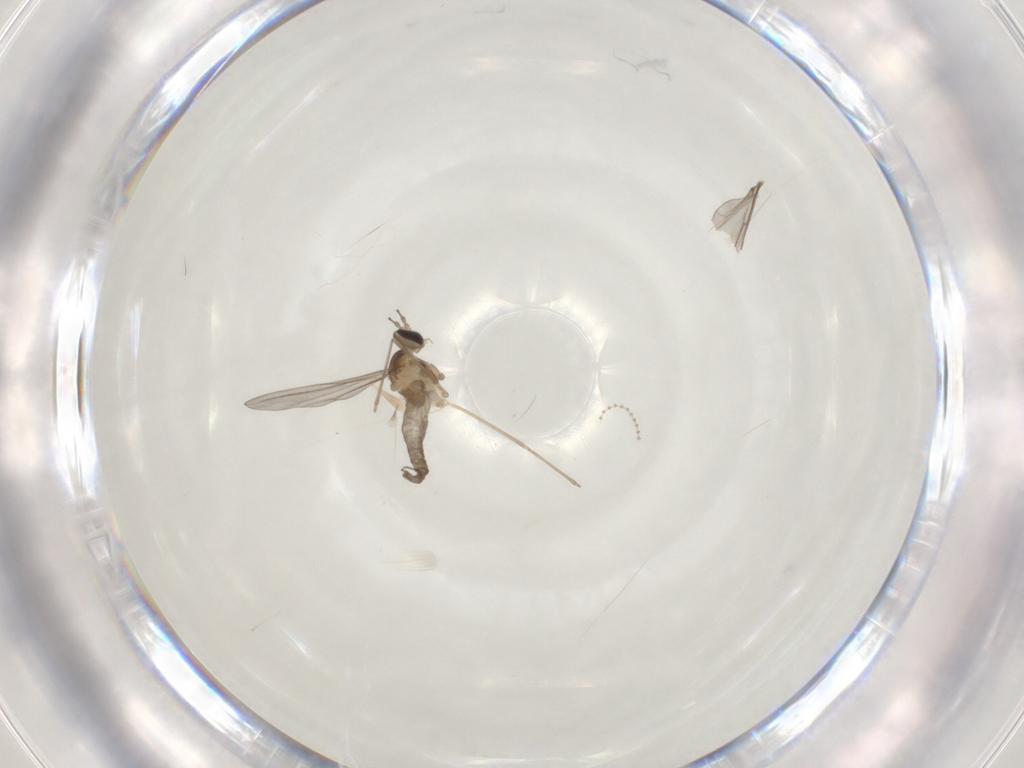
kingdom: Animalia
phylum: Arthropoda
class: Insecta
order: Diptera
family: Cecidomyiidae
